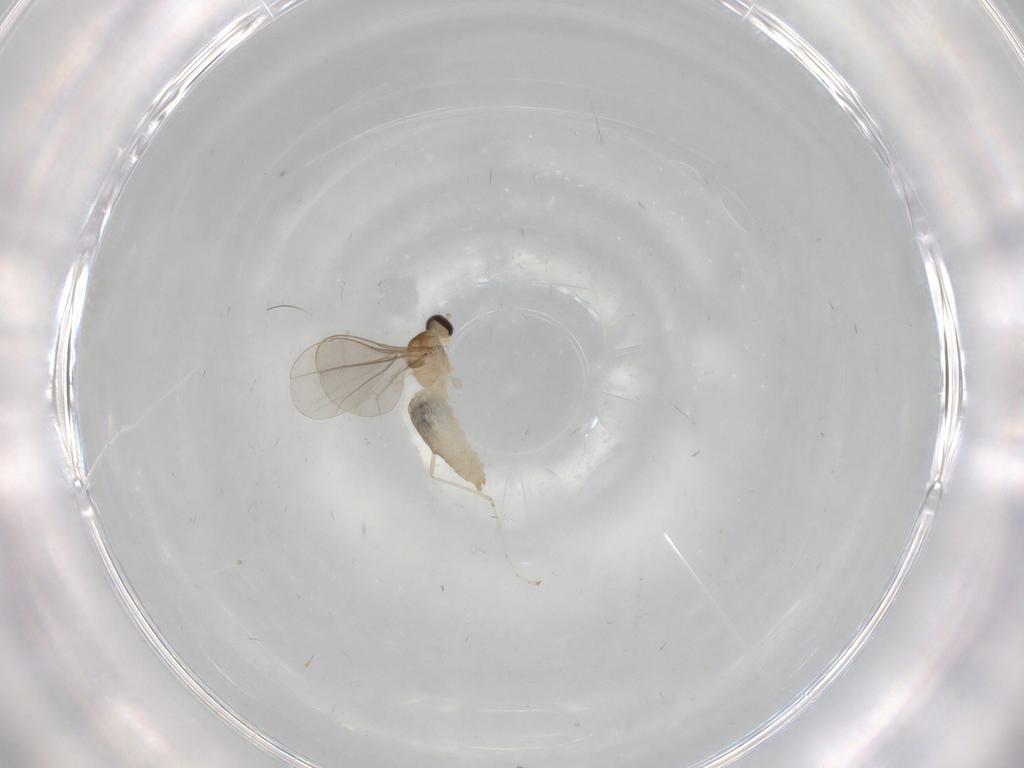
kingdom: Animalia
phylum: Arthropoda
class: Insecta
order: Diptera
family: Cecidomyiidae
